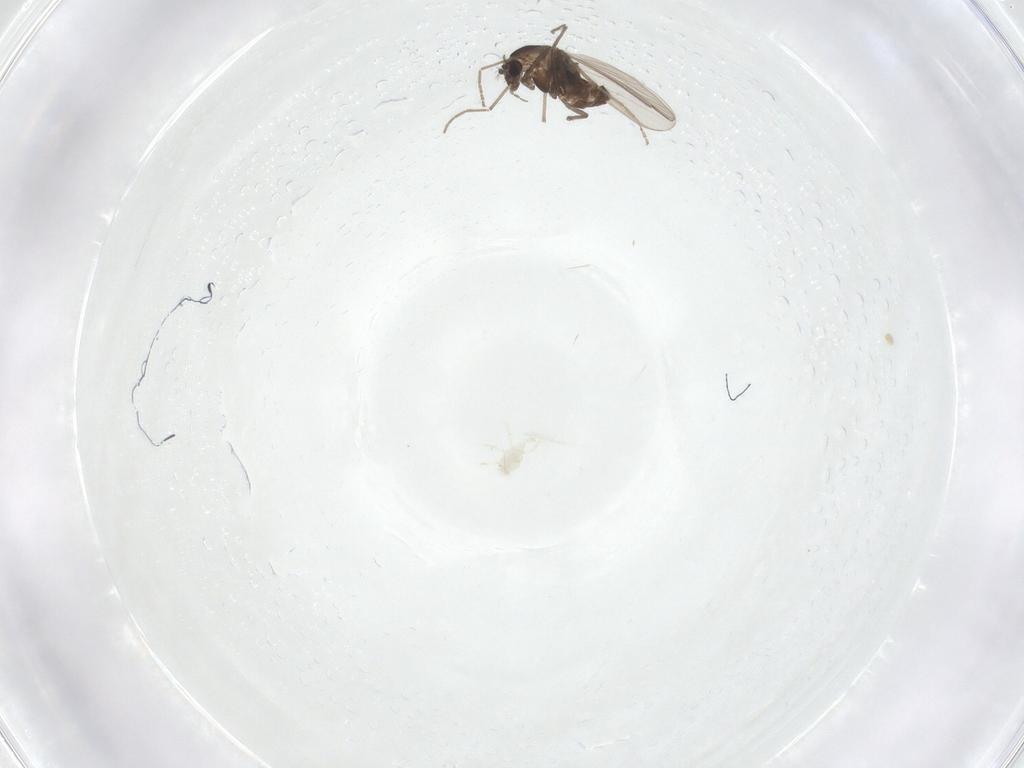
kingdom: Animalia
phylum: Arthropoda
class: Insecta
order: Diptera
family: Chironomidae
